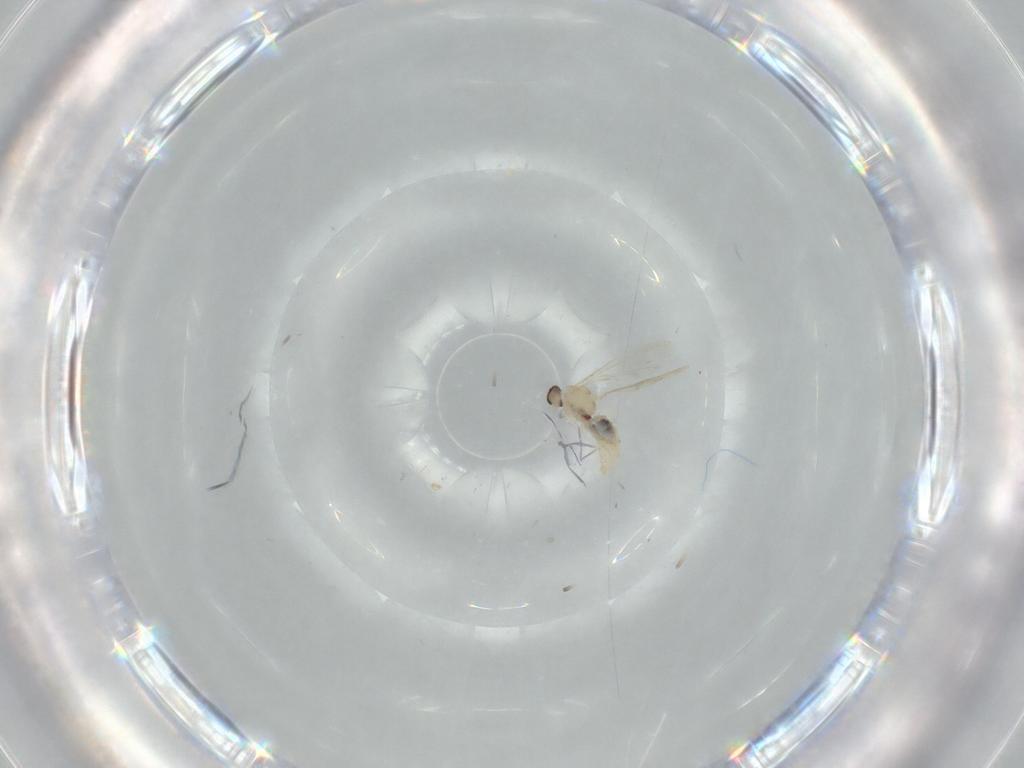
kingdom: Animalia
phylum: Arthropoda
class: Insecta
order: Diptera
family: Cecidomyiidae
